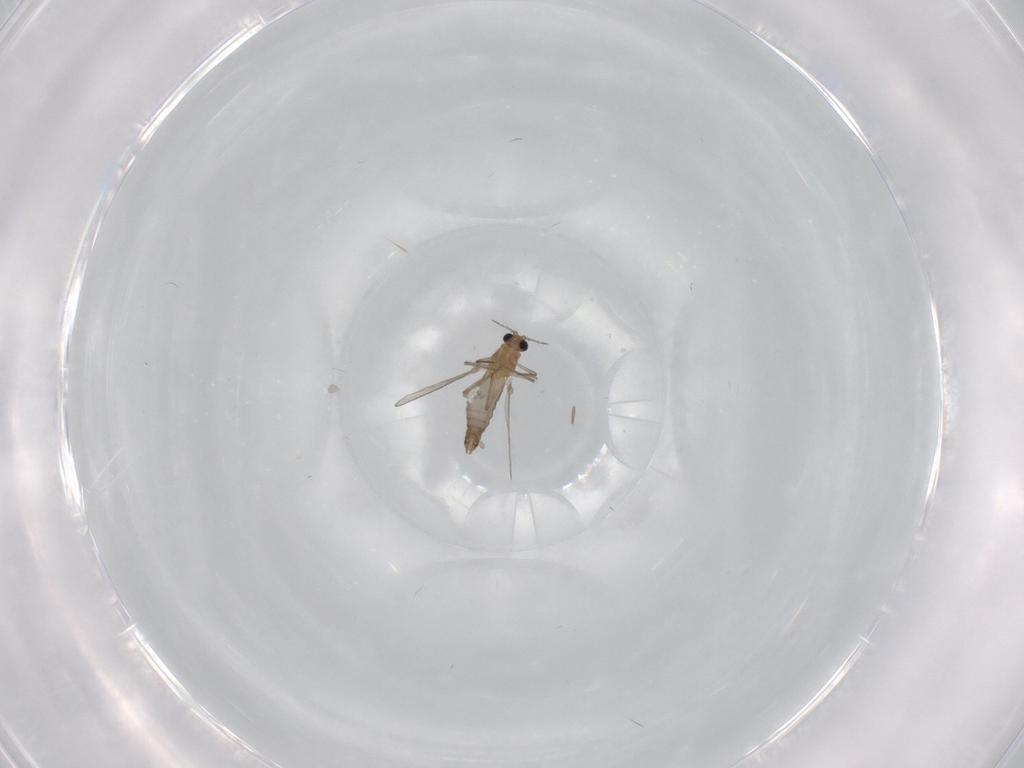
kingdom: Animalia
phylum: Arthropoda
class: Insecta
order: Diptera
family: Chironomidae
